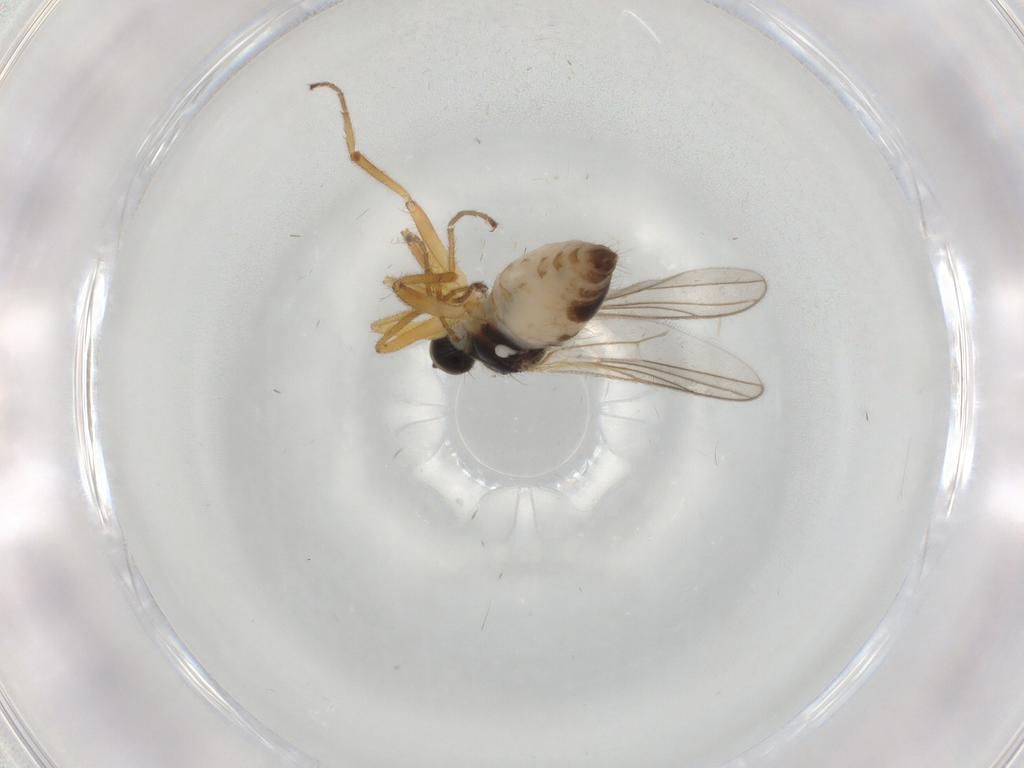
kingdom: Animalia
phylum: Arthropoda
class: Insecta
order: Diptera
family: Hybotidae
